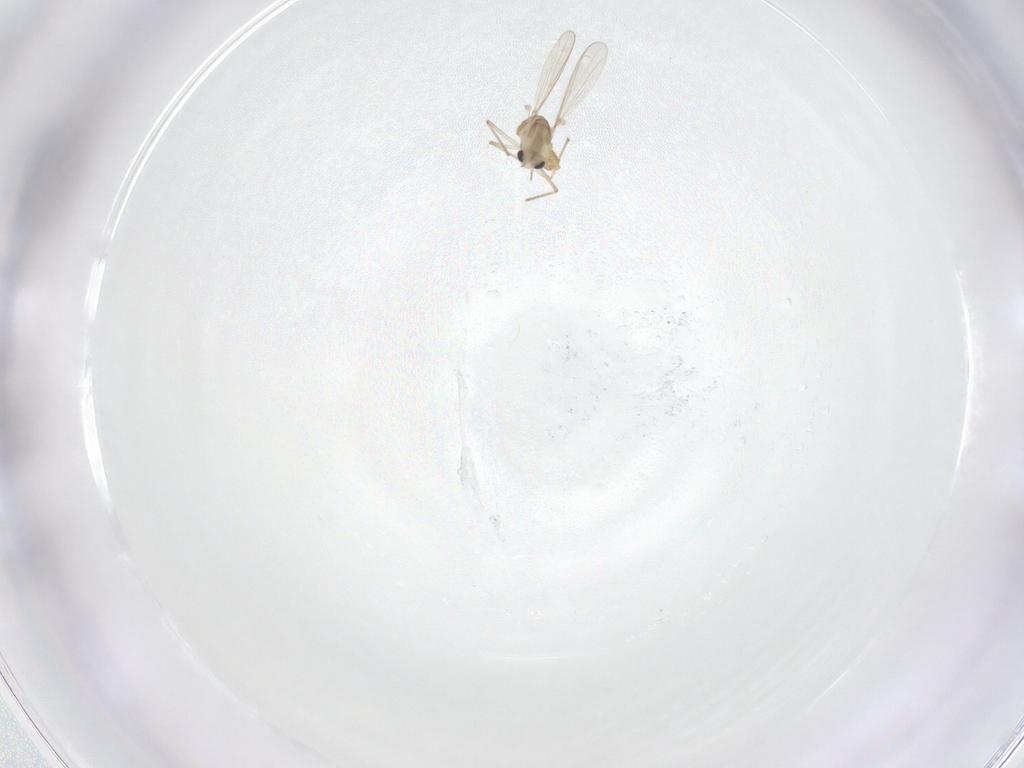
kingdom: Animalia
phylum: Arthropoda
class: Insecta
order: Diptera
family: Chironomidae
